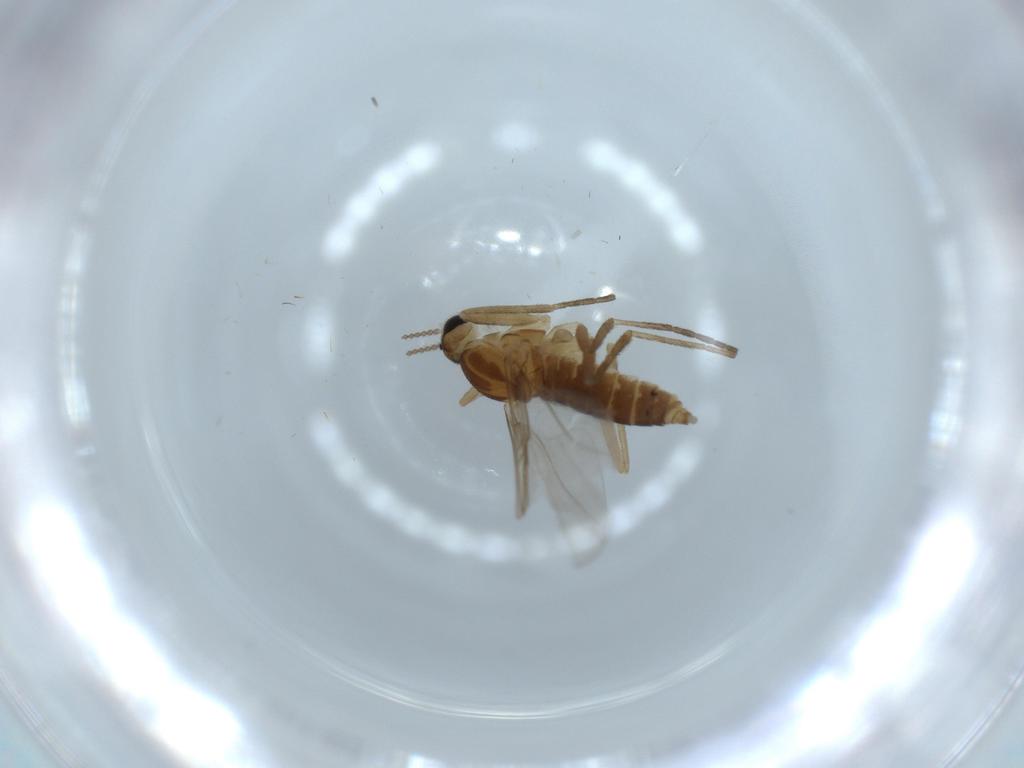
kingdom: Animalia
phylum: Arthropoda
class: Insecta
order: Diptera
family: Cecidomyiidae
